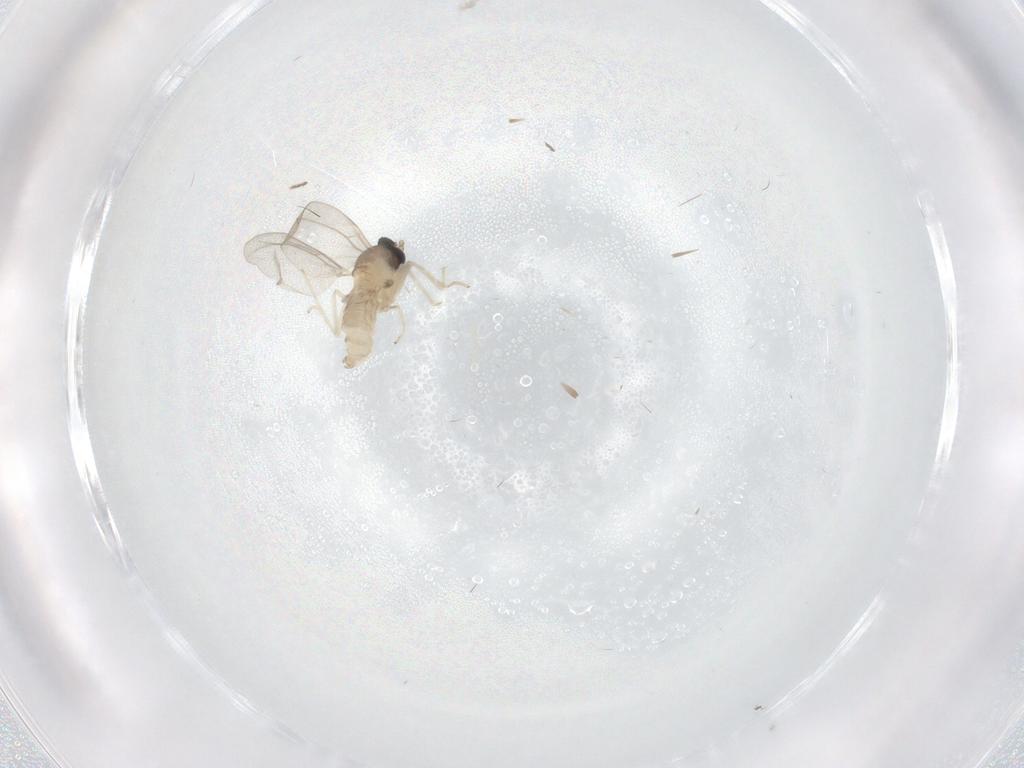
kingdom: Animalia
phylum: Arthropoda
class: Insecta
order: Diptera
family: Phoridae
